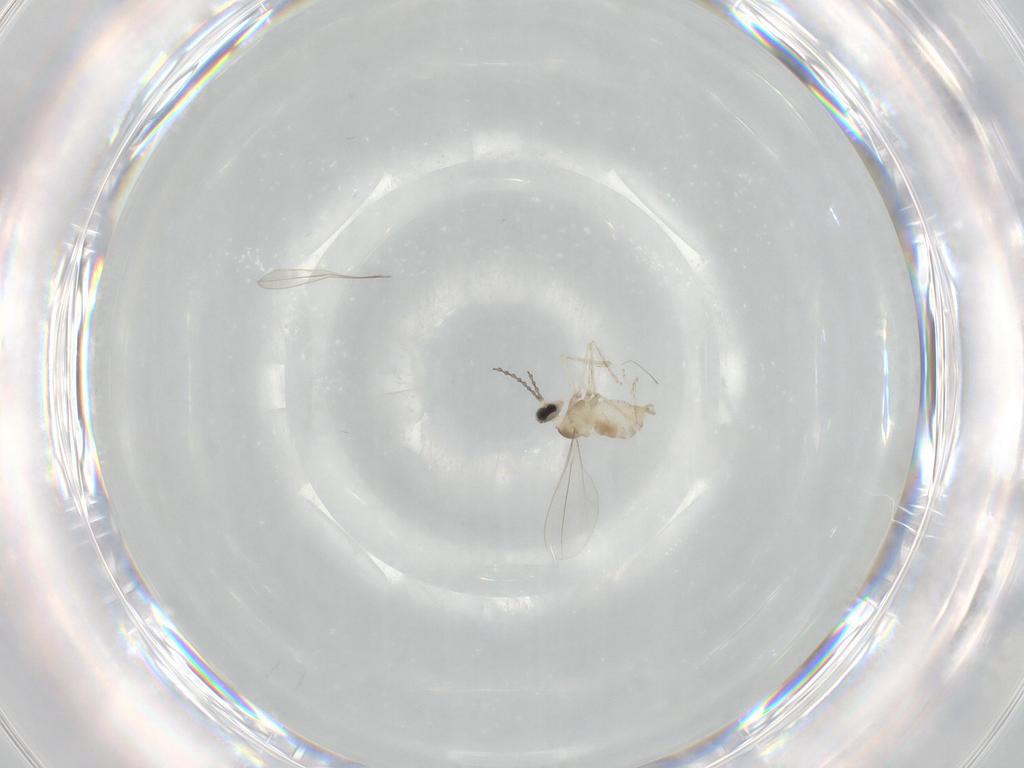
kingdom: Animalia
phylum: Arthropoda
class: Insecta
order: Diptera
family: Cecidomyiidae
